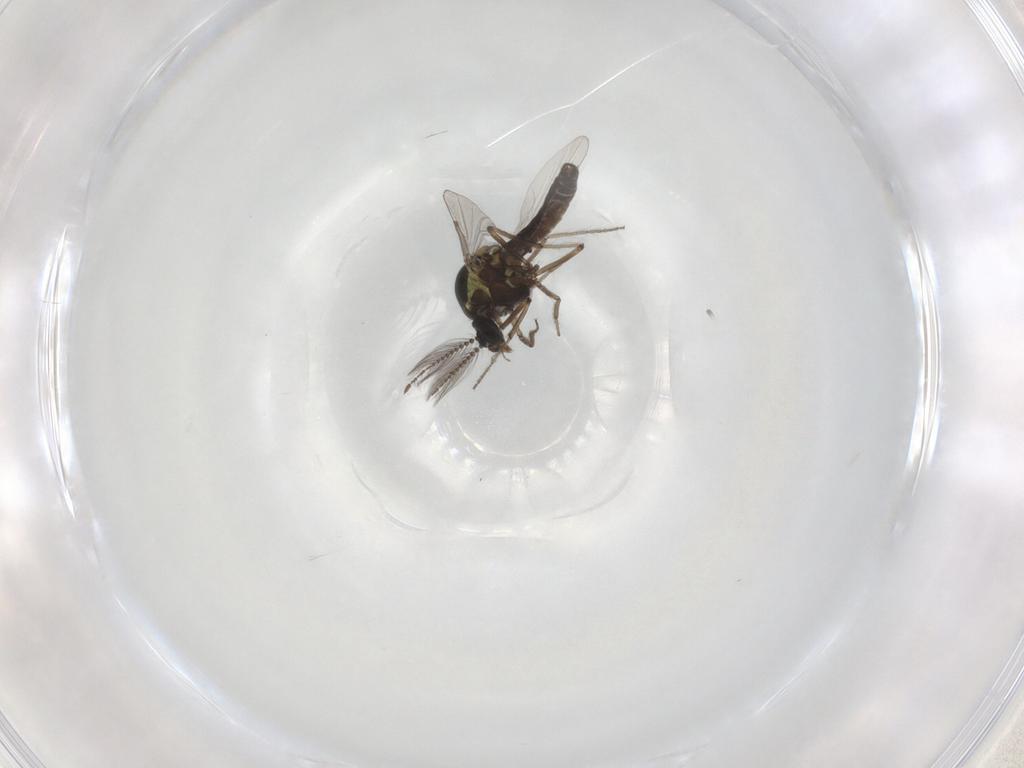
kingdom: Animalia
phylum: Arthropoda
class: Insecta
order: Diptera
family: Ceratopogonidae
